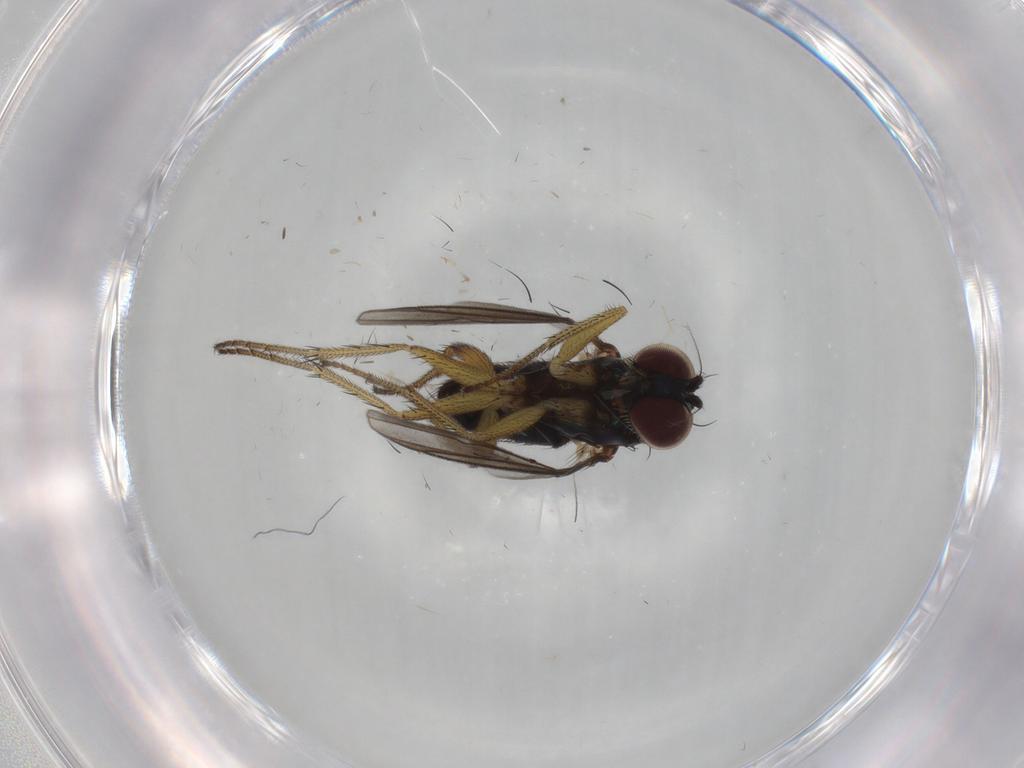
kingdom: Animalia
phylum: Arthropoda
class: Insecta
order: Diptera
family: Dolichopodidae
